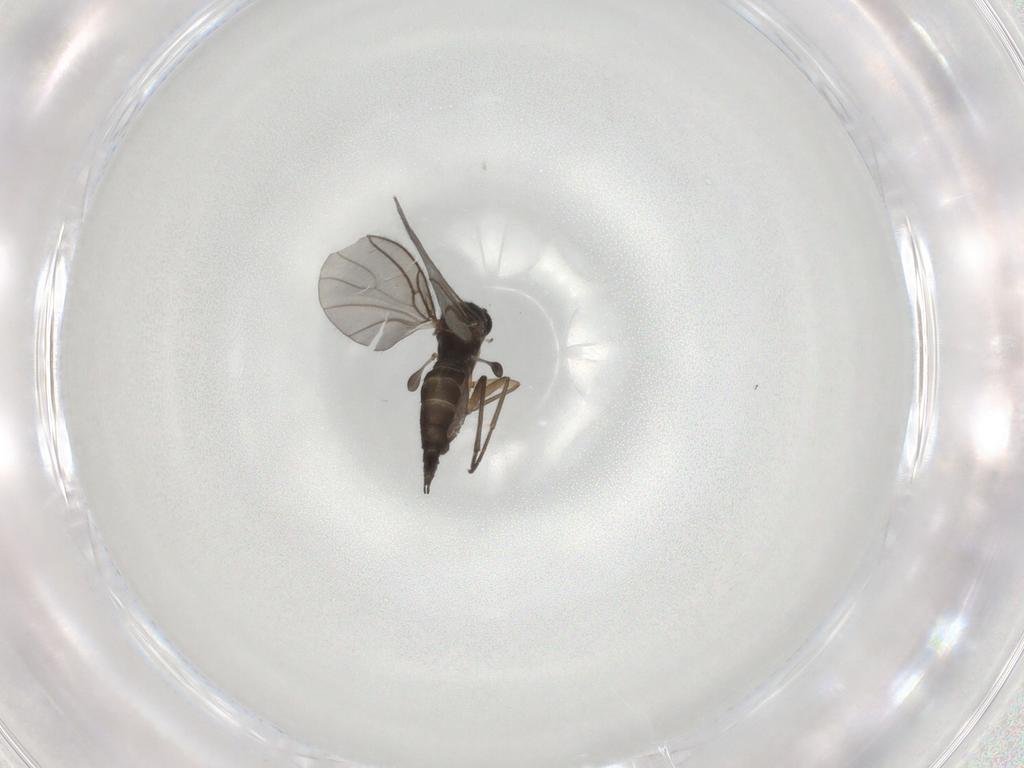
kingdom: Animalia
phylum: Arthropoda
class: Insecta
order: Diptera
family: Sciaridae
